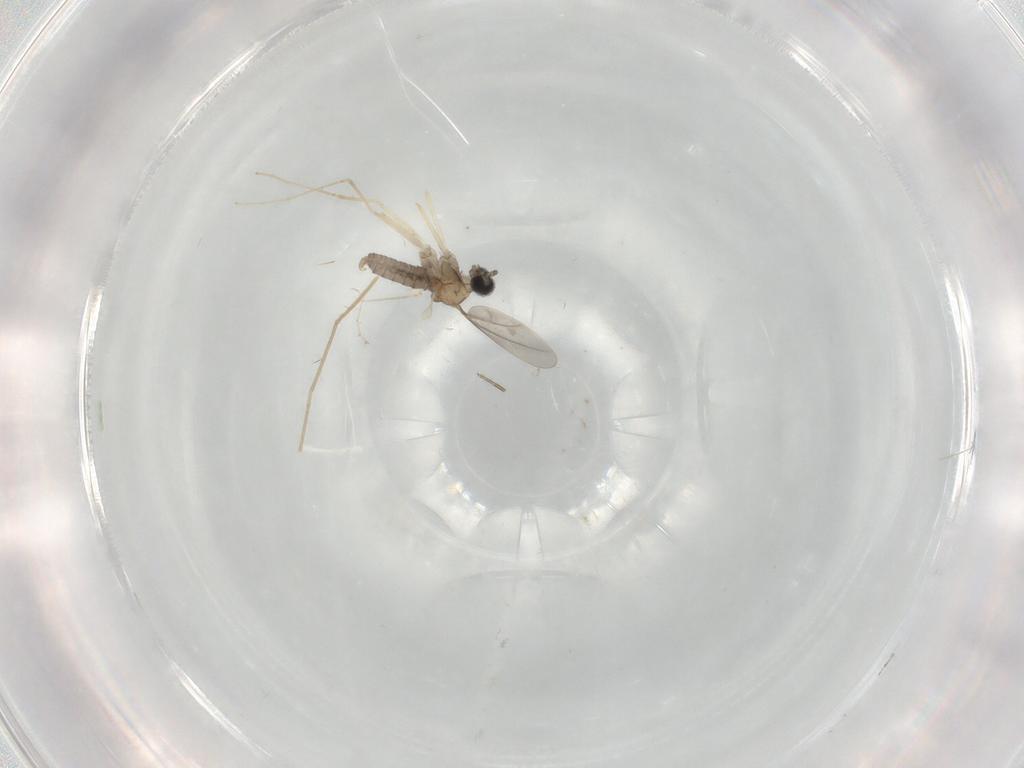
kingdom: Animalia
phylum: Arthropoda
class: Insecta
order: Diptera
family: Cecidomyiidae
